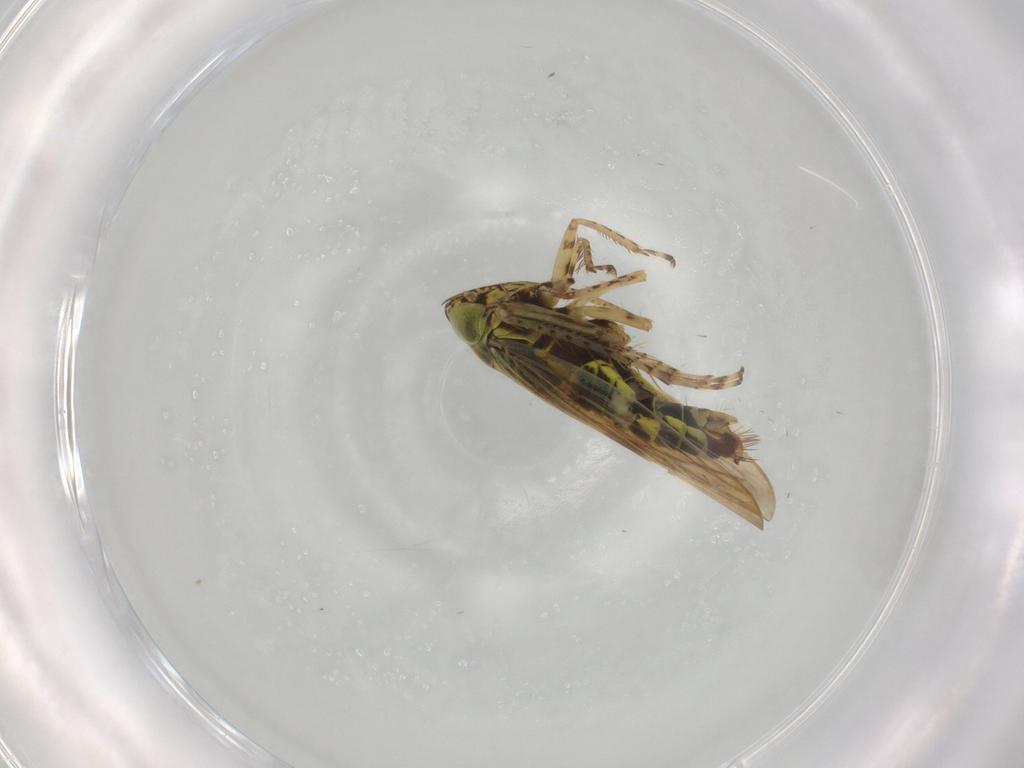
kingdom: Animalia
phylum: Arthropoda
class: Insecta
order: Hemiptera
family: Cicadellidae
